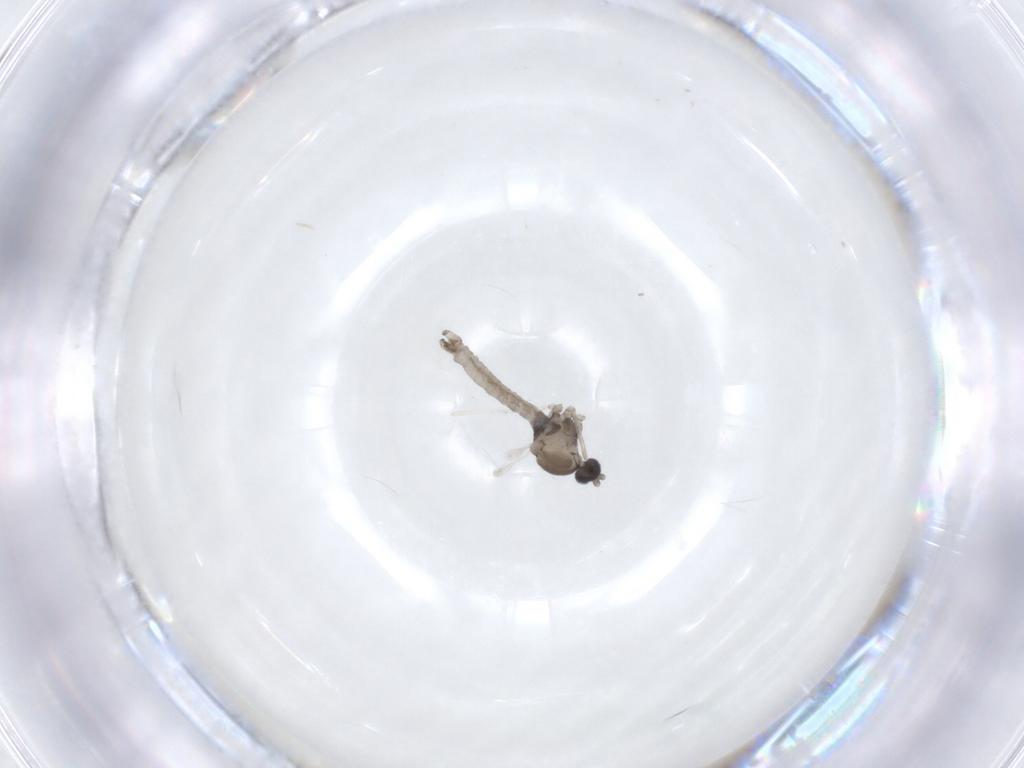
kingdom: Animalia
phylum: Arthropoda
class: Insecta
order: Diptera
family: Chironomidae
